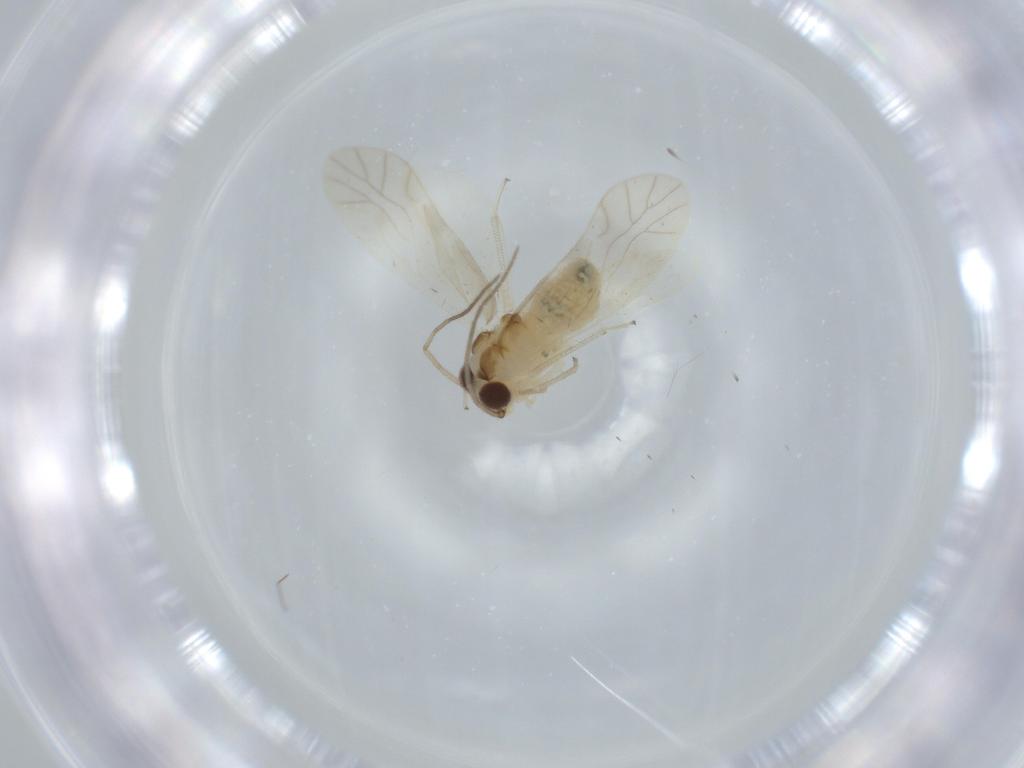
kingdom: Animalia
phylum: Arthropoda
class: Insecta
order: Psocodea
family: Caeciliusidae
